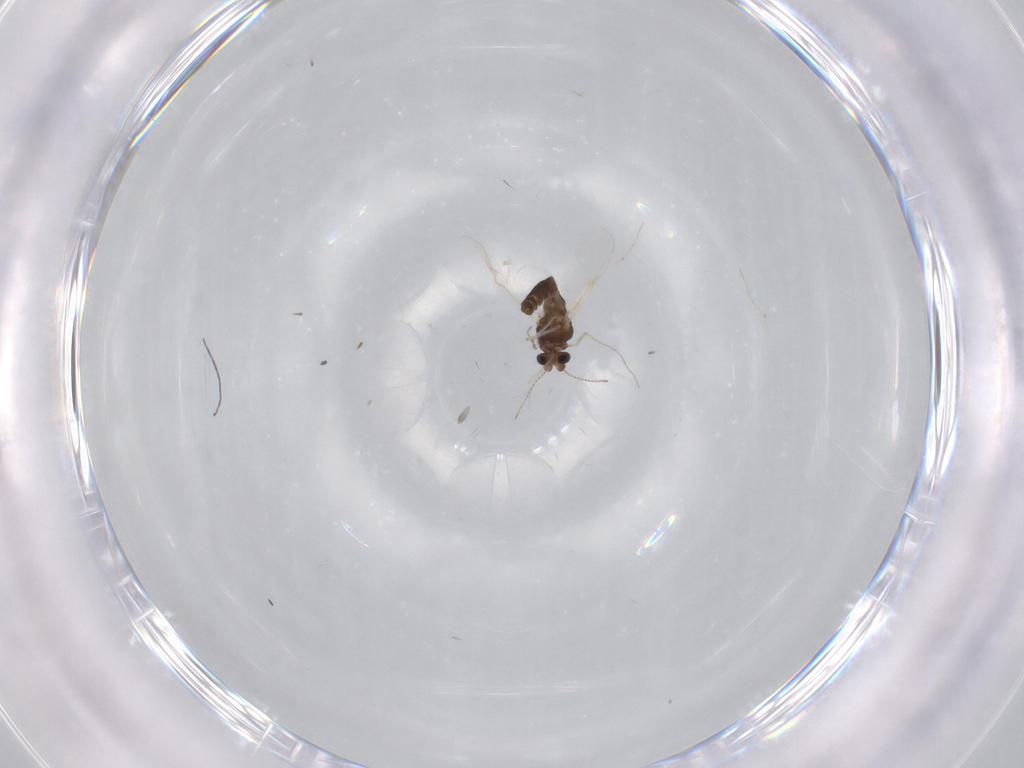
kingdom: Animalia
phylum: Arthropoda
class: Insecta
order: Diptera
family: Chironomidae
